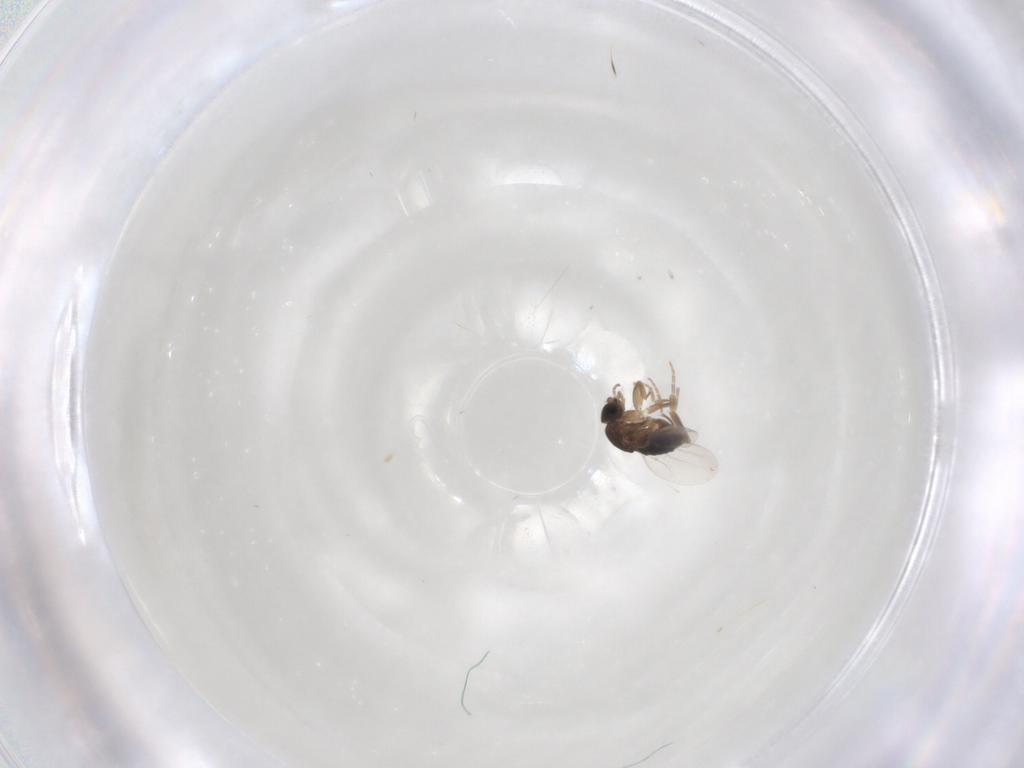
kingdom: Animalia
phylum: Arthropoda
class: Insecta
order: Diptera
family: Phoridae
